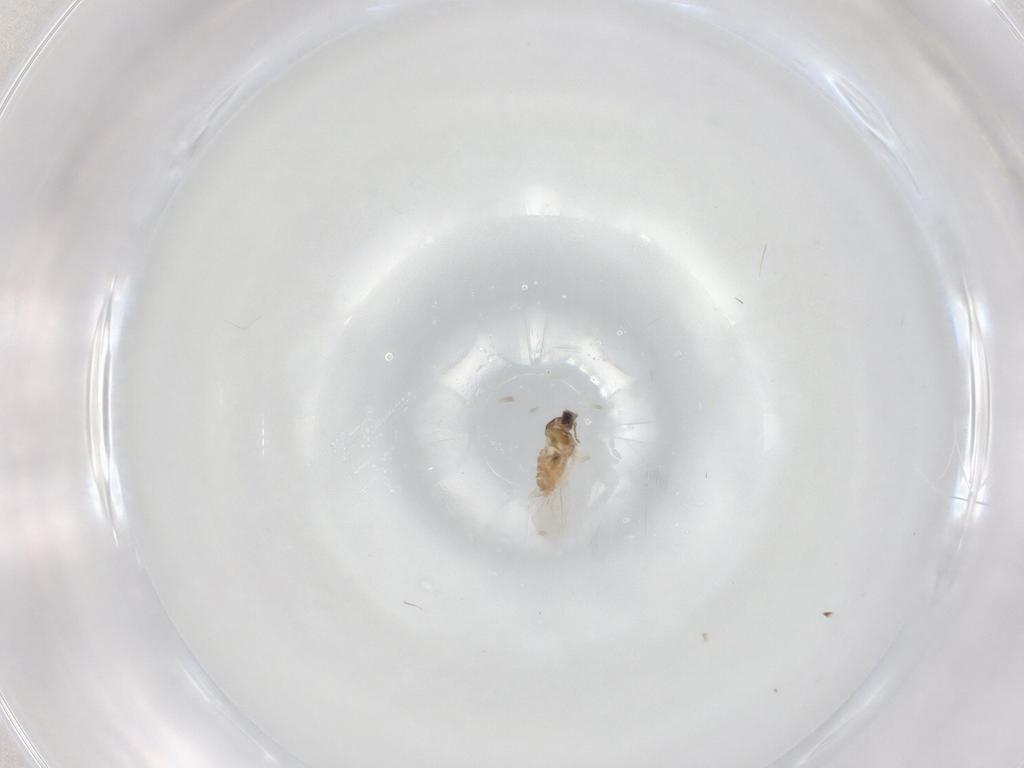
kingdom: Animalia
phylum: Arthropoda
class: Insecta
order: Diptera
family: Cecidomyiidae
